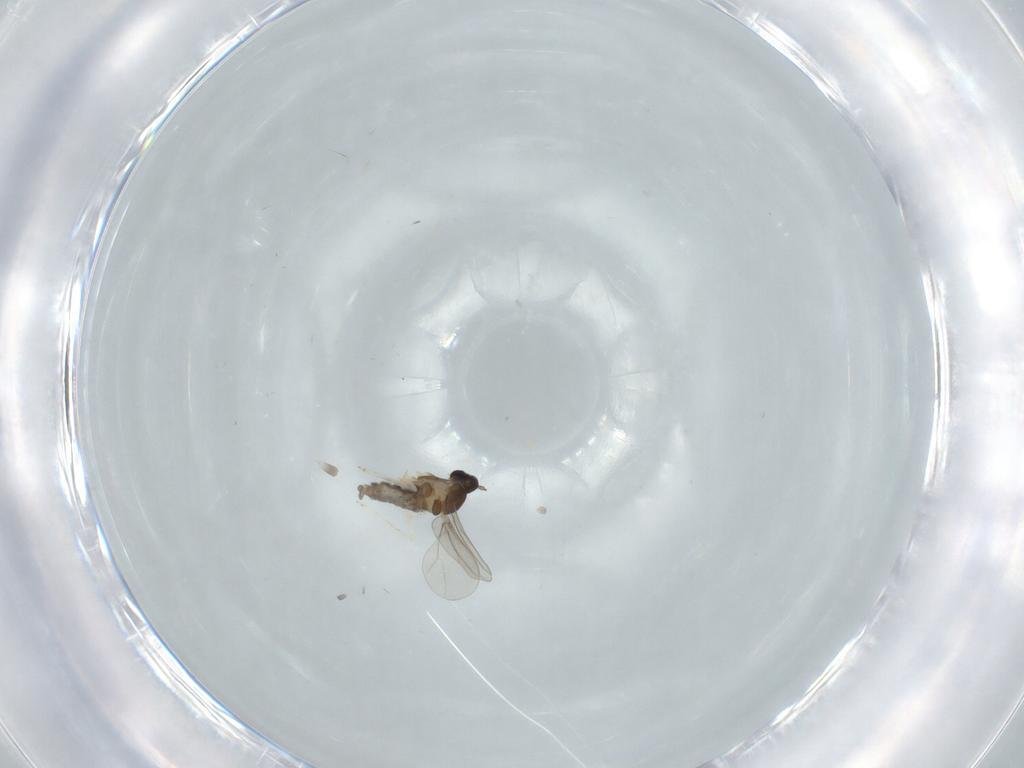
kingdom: Animalia
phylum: Arthropoda
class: Insecta
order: Diptera
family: Cecidomyiidae
